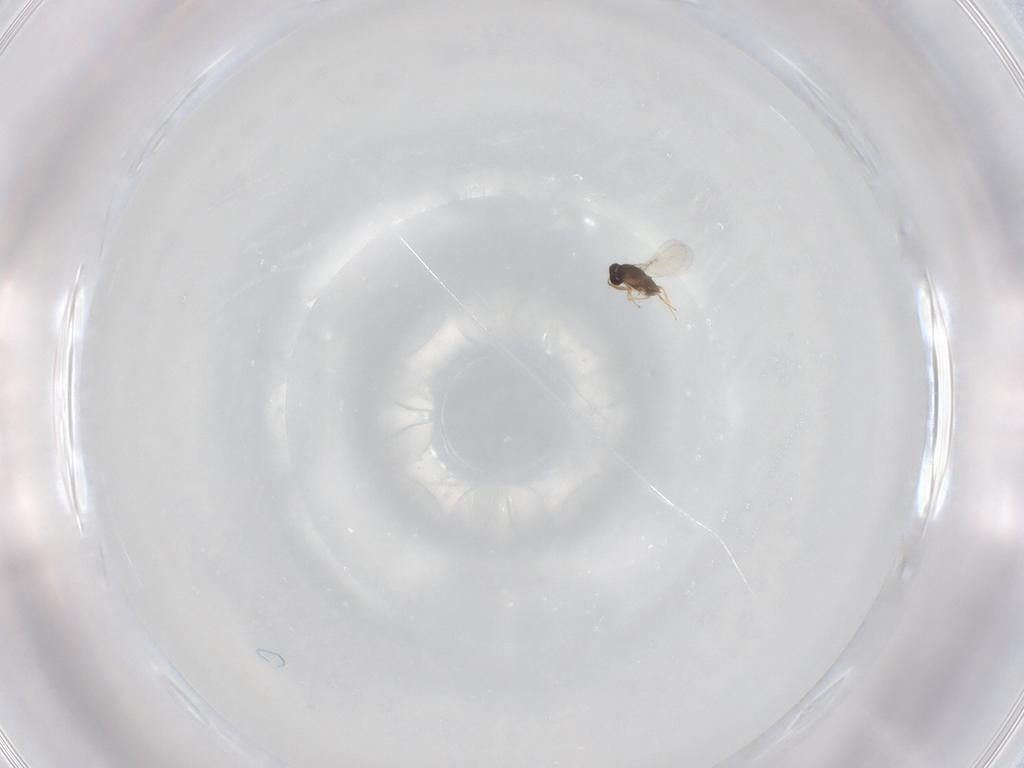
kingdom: Animalia
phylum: Arthropoda
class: Insecta
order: Hymenoptera
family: Encyrtidae
